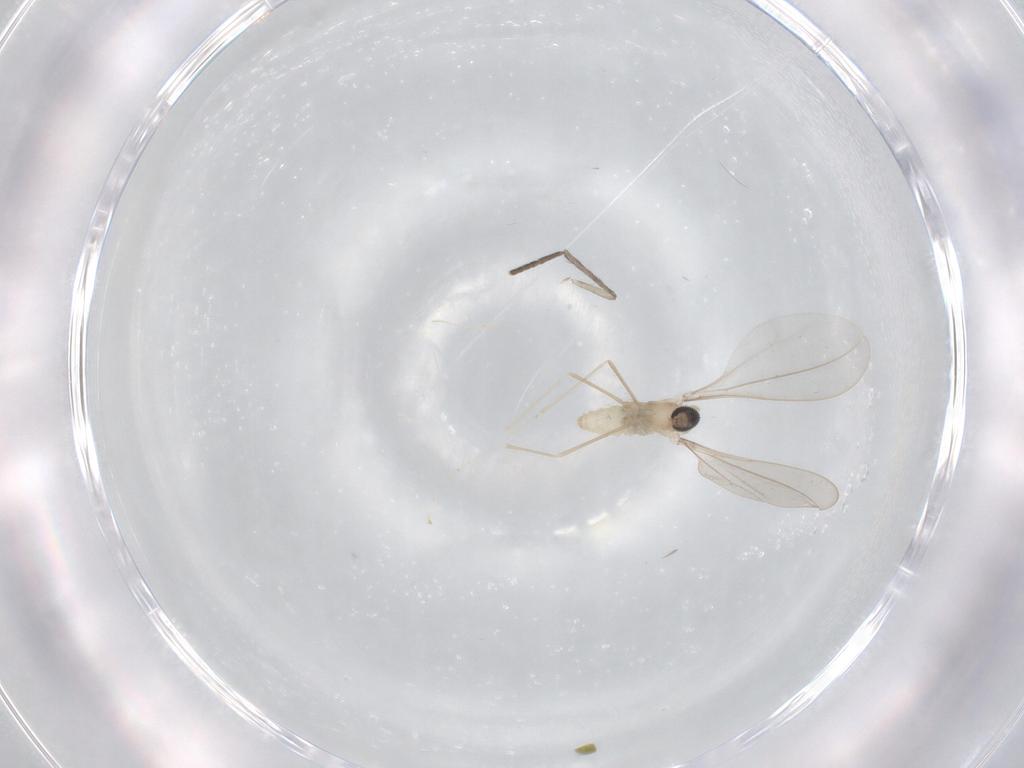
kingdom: Animalia
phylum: Arthropoda
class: Insecta
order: Diptera
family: Cecidomyiidae
